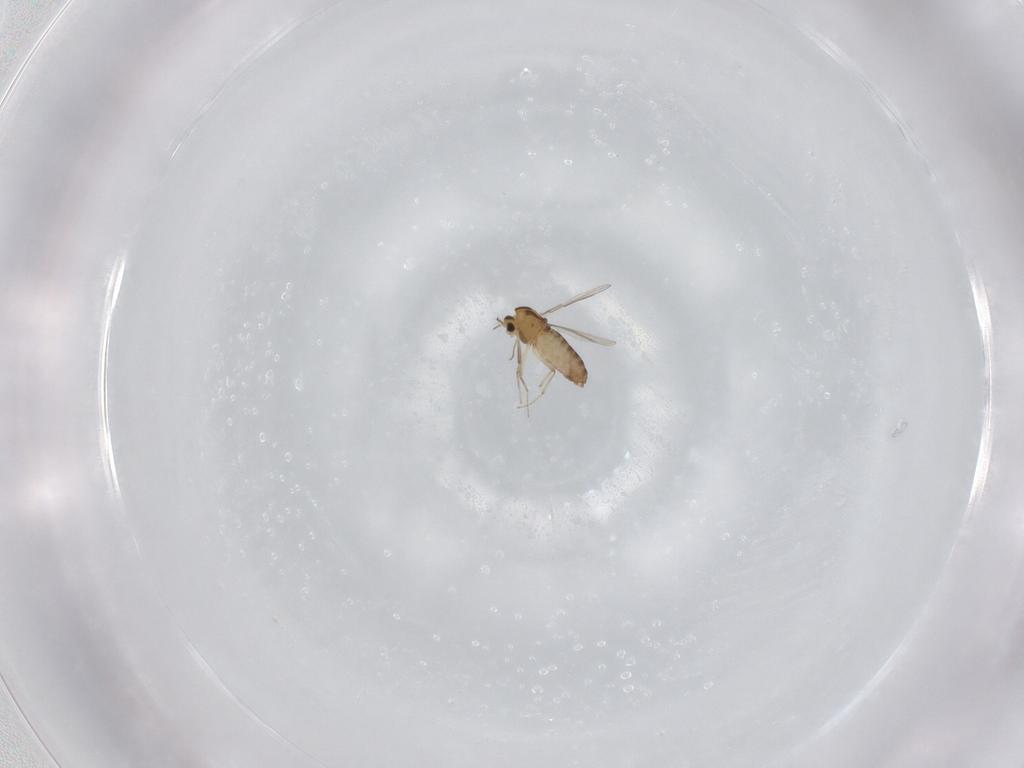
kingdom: Animalia
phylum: Arthropoda
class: Insecta
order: Diptera
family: Chironomidae
